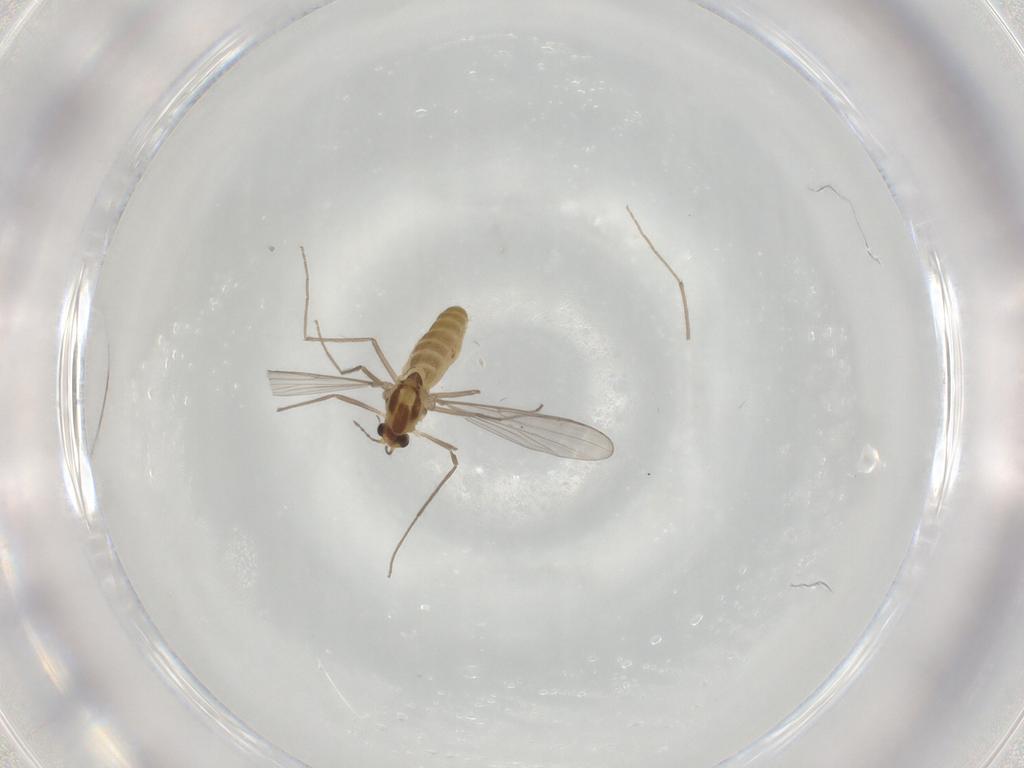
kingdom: Animalia
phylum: Arthropoda
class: Insecta
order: Diptera
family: Chironomidae
